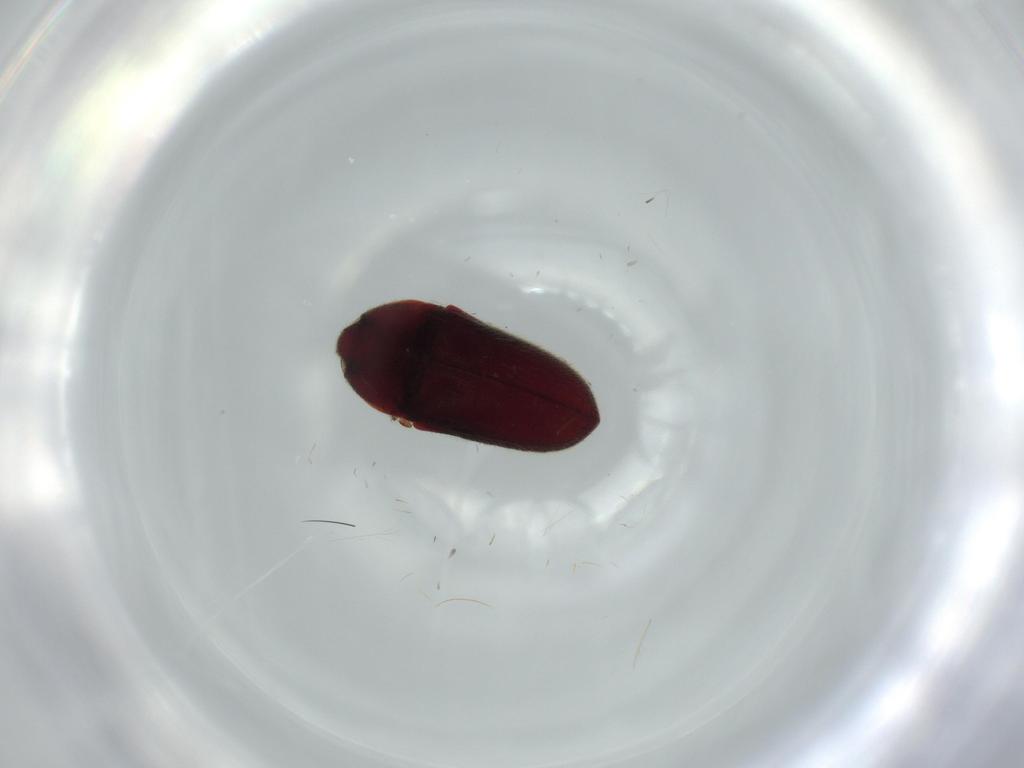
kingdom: Animalia
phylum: Arthropoda
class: Insecta
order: Coleoptera
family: Throscidae
